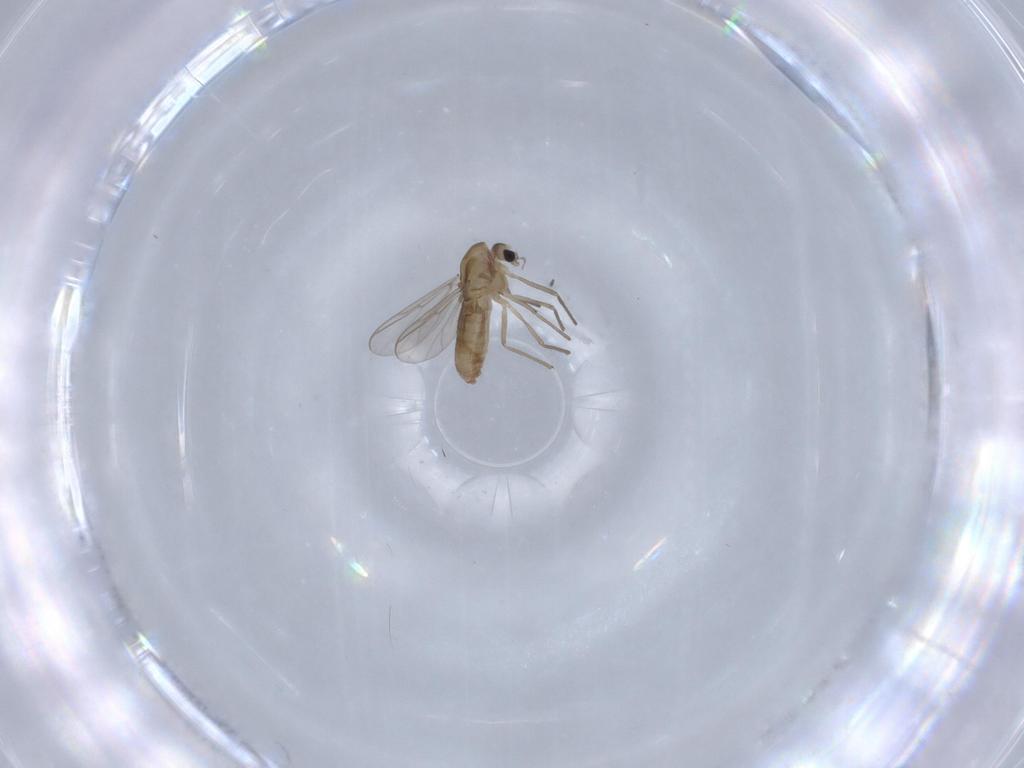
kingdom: Animalia
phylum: Arthropoda
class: Insecta
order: Diptera
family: Chironomidae
